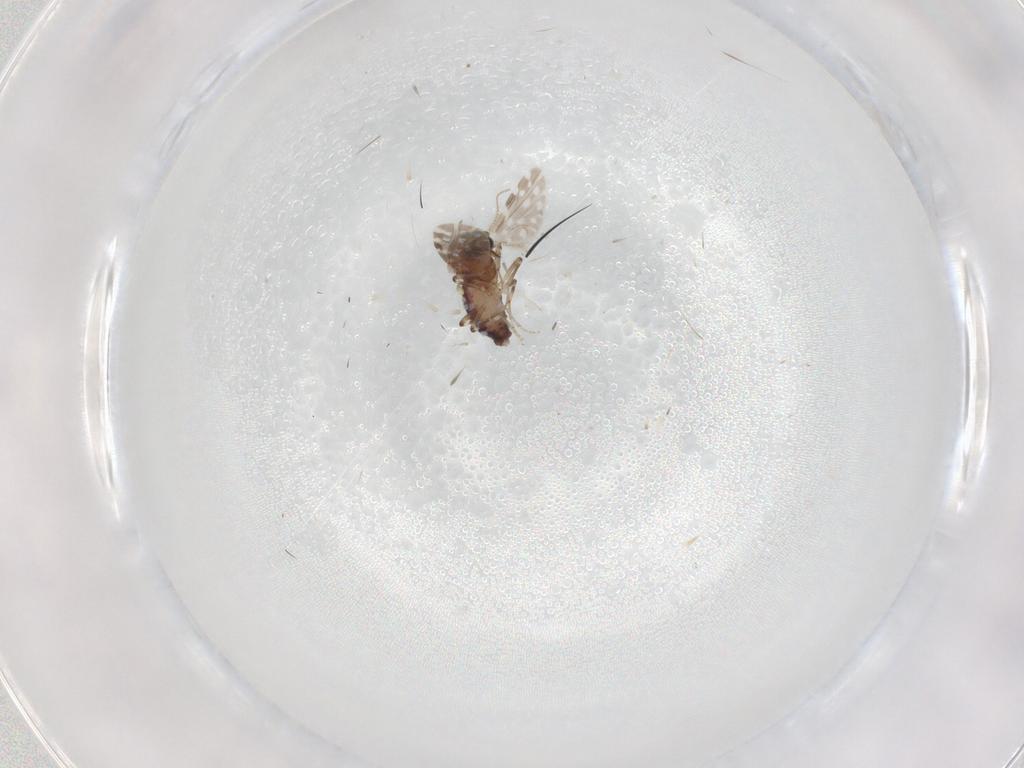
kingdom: Animalia
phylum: Arthropoda
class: Insecta
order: Diptera
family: Chironomidae
